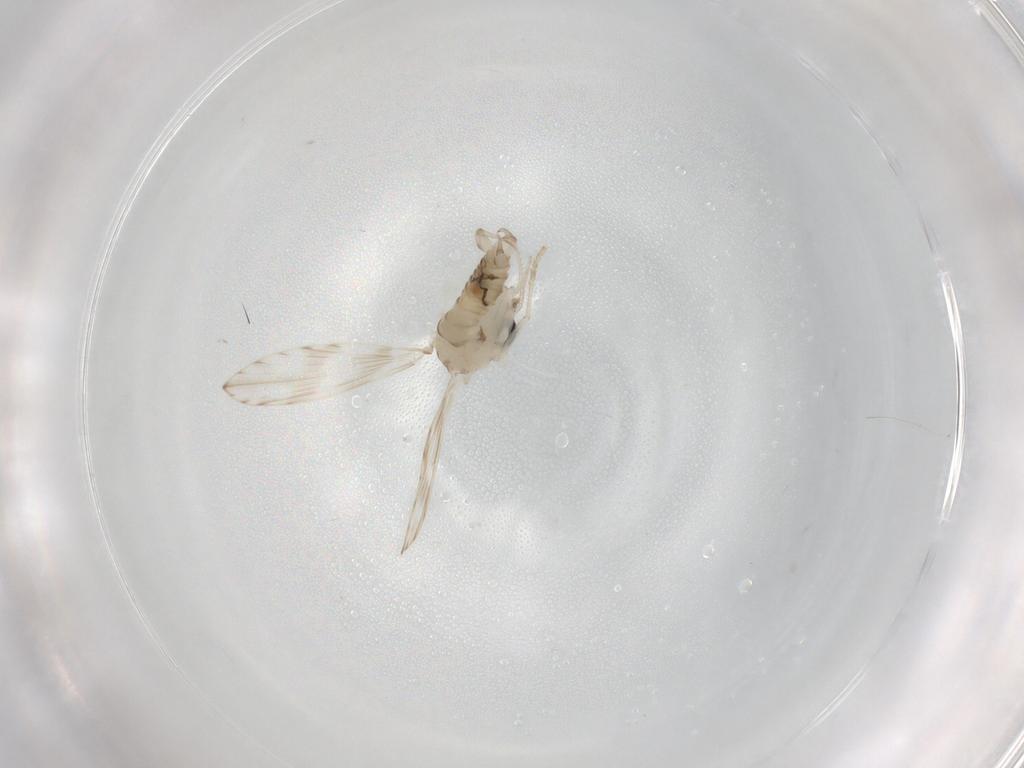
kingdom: Animalia
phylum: Arthropoda
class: Insecta
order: Diptera
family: Psychodidae
